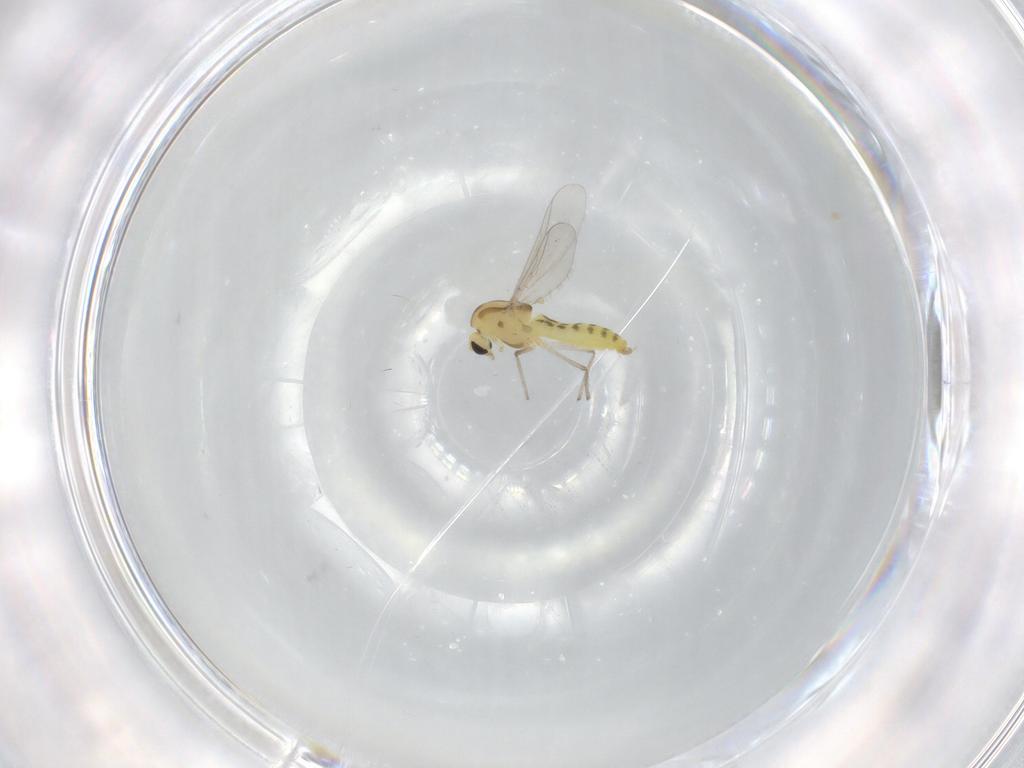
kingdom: Animalia
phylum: Arthropoda
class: Insecta
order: Diptera
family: Chironomidae
